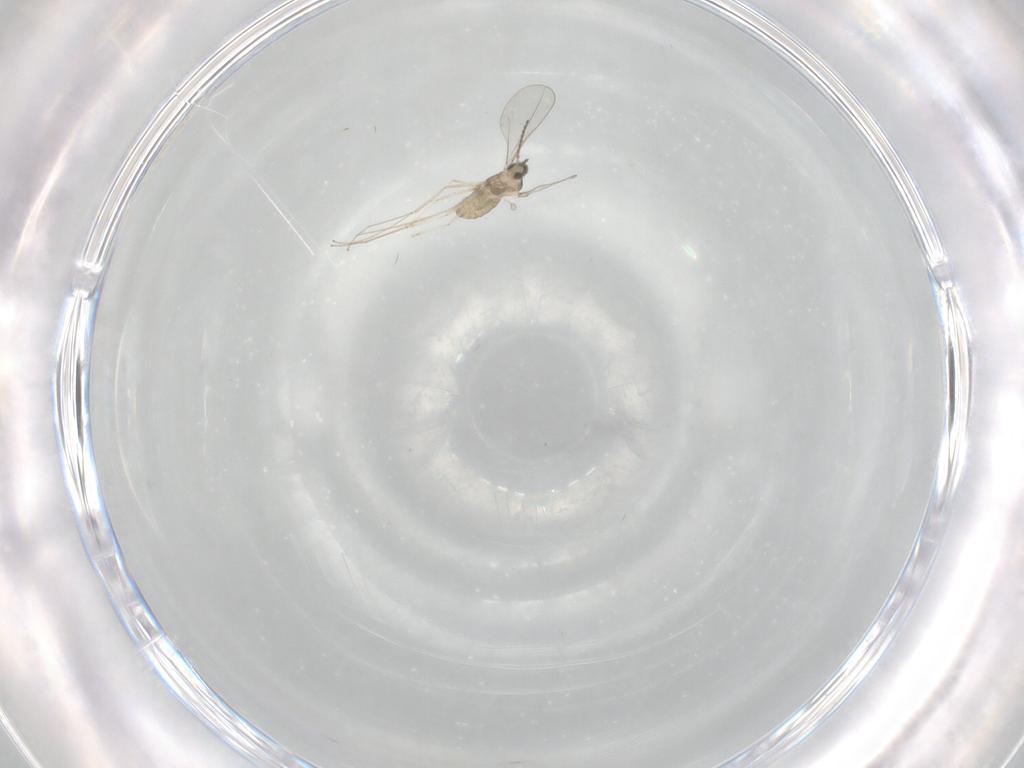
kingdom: Animalia
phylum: Arthropoda
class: Insecta
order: Diptera
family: Cecidomyiidae
